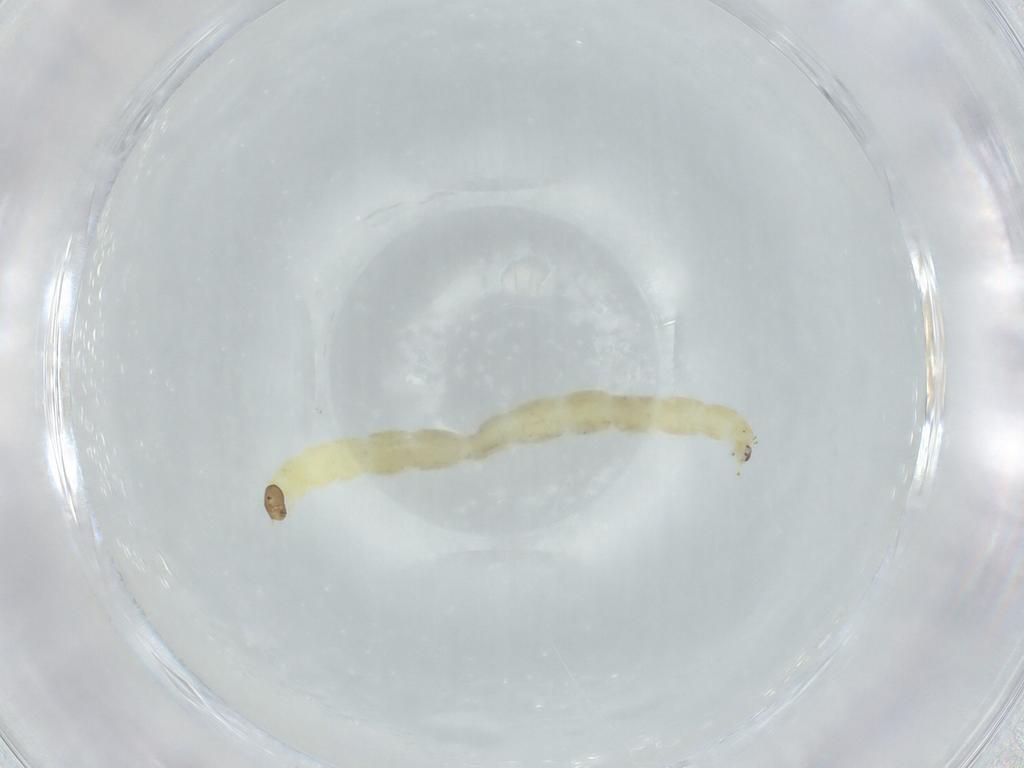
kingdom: Animalia
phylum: Arthropoda
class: Insecta
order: Diptera
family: Chironomidae
